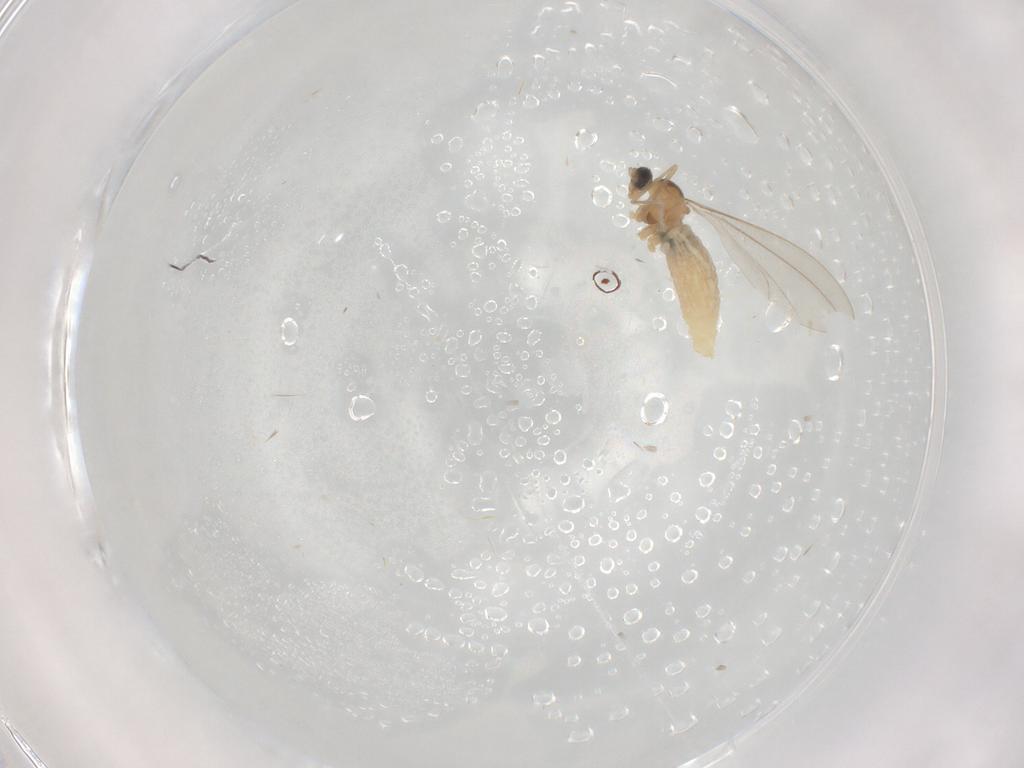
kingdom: Animalia
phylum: Arthropoda
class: Insecta
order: Diptera
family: Cecidomyiidae
